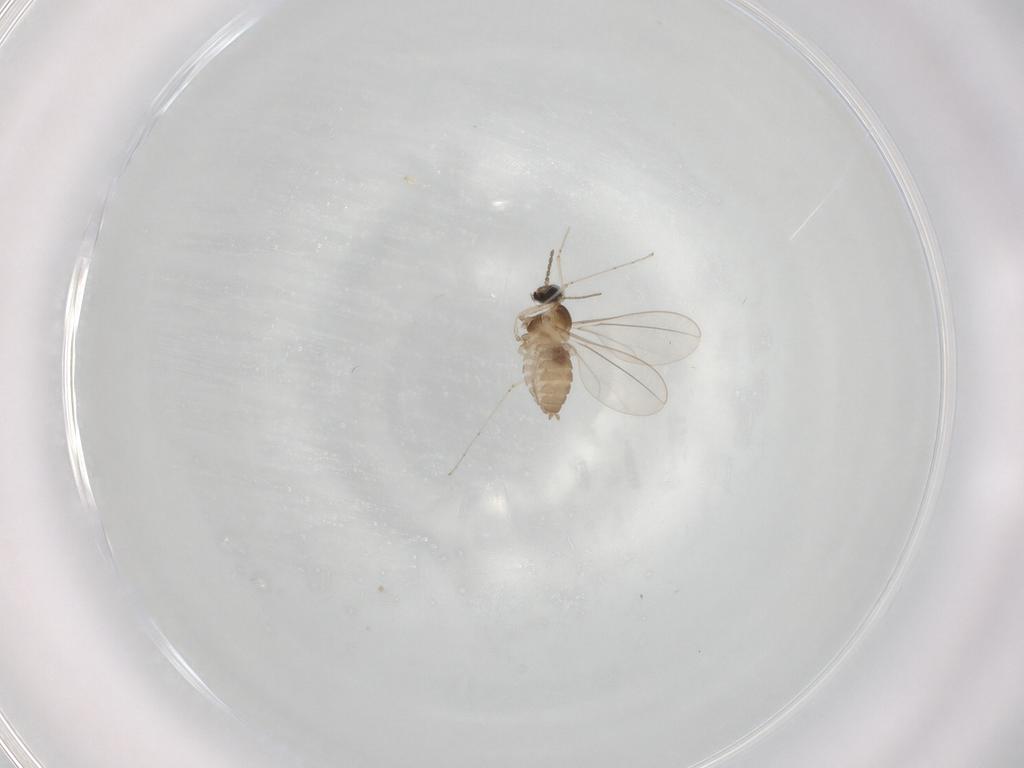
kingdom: Animalia
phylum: Arthropoda
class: Insecta
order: Diptera
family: Cecidomyiidae
